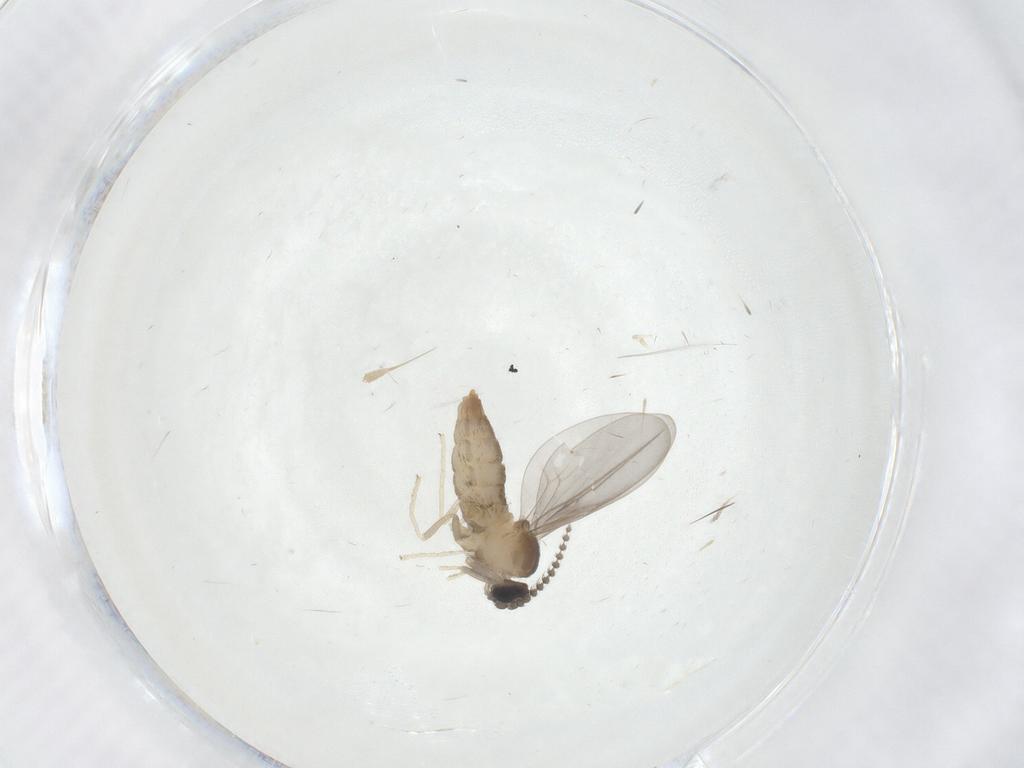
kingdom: Animalia
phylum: Arthropoda
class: Insecta
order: Diptera
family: Cecidomyiidae
